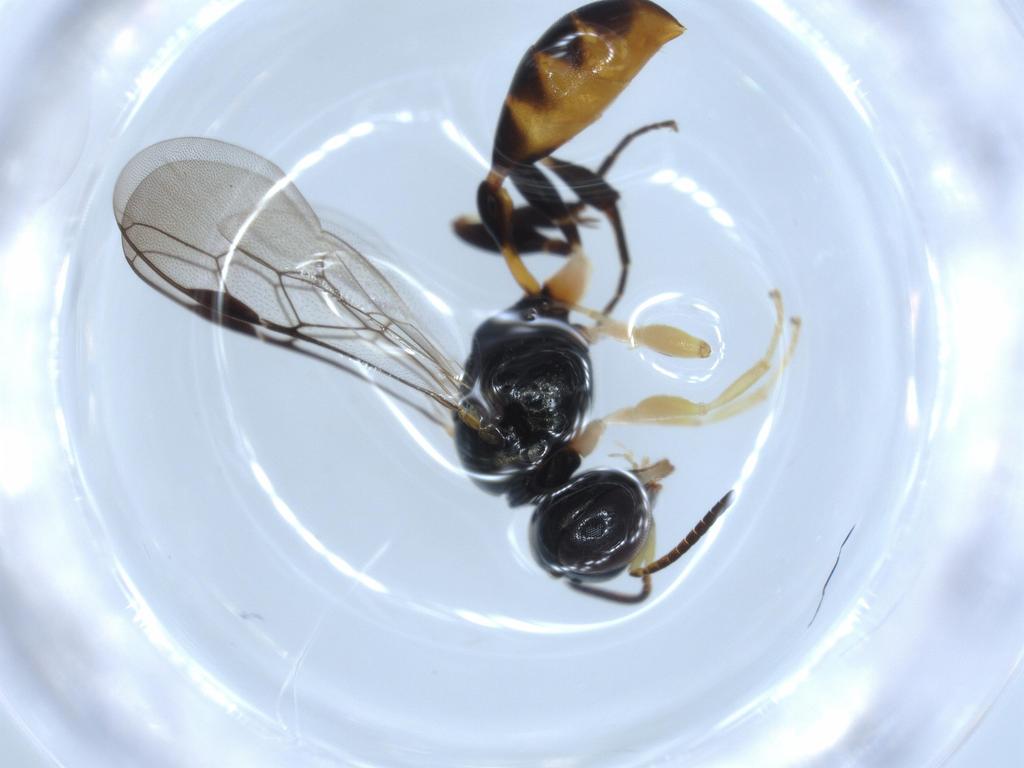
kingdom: Animalia
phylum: Arthropoda
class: Insecta
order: Hymenoptera
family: Crabronidae
